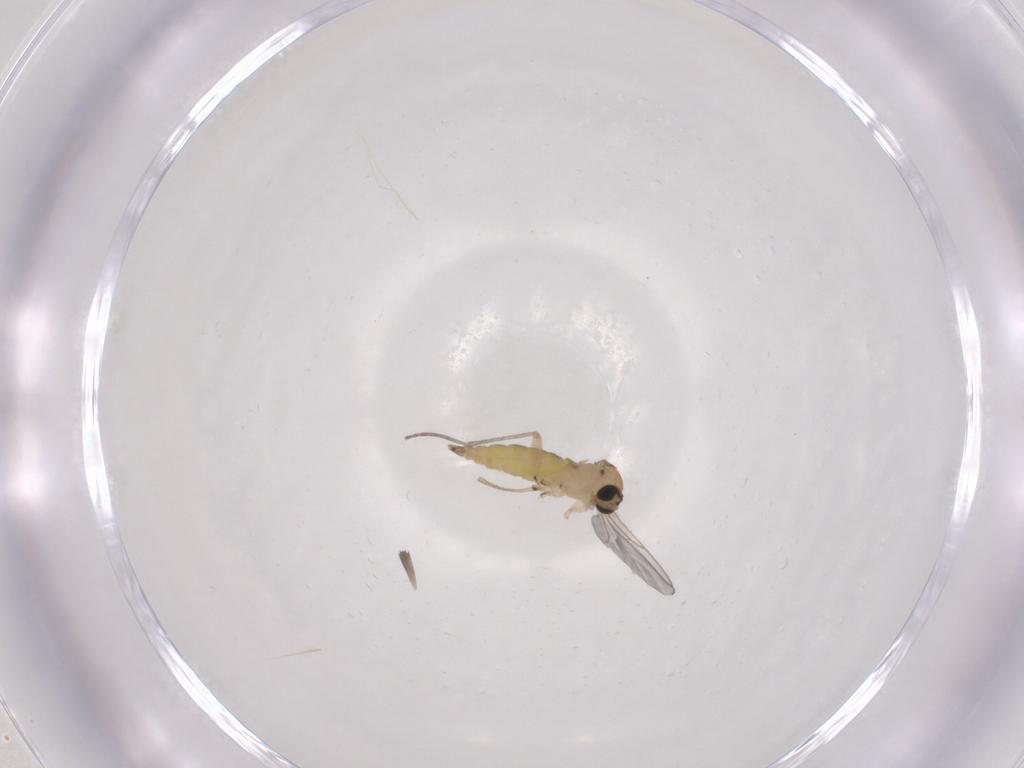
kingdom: Animalia
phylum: Arthropoda
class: Insecta
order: Diptera
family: Sciaridae
